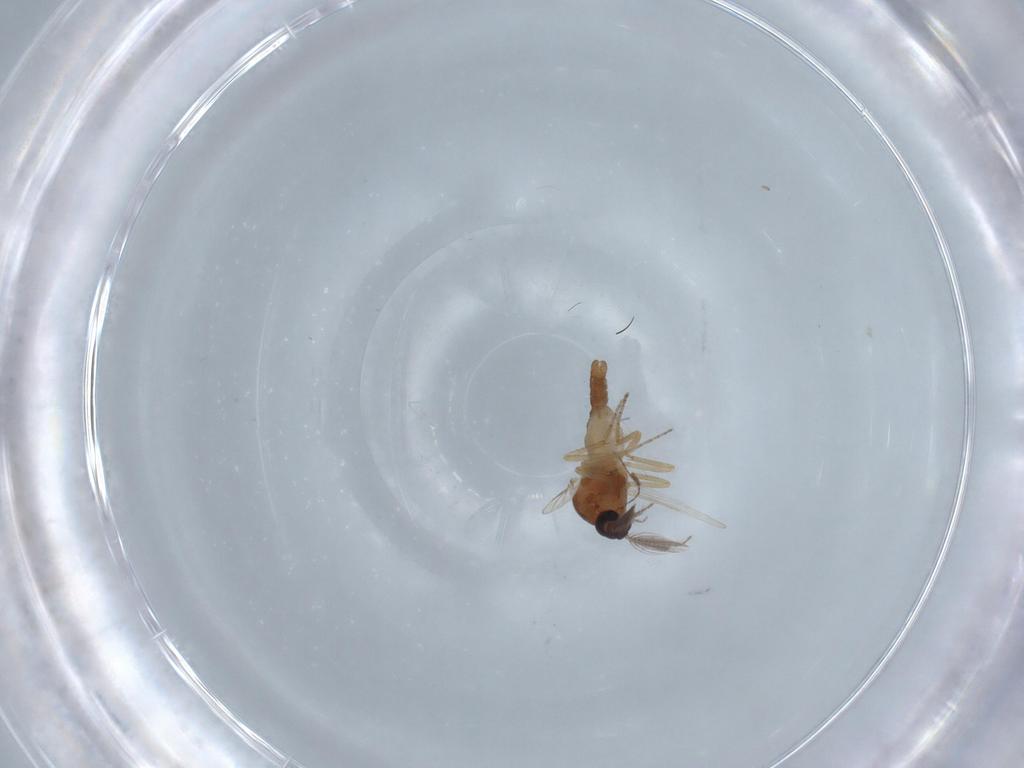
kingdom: Animalia
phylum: Arthropoda
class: Insecta
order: Diptera
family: Ceratopogonidae
